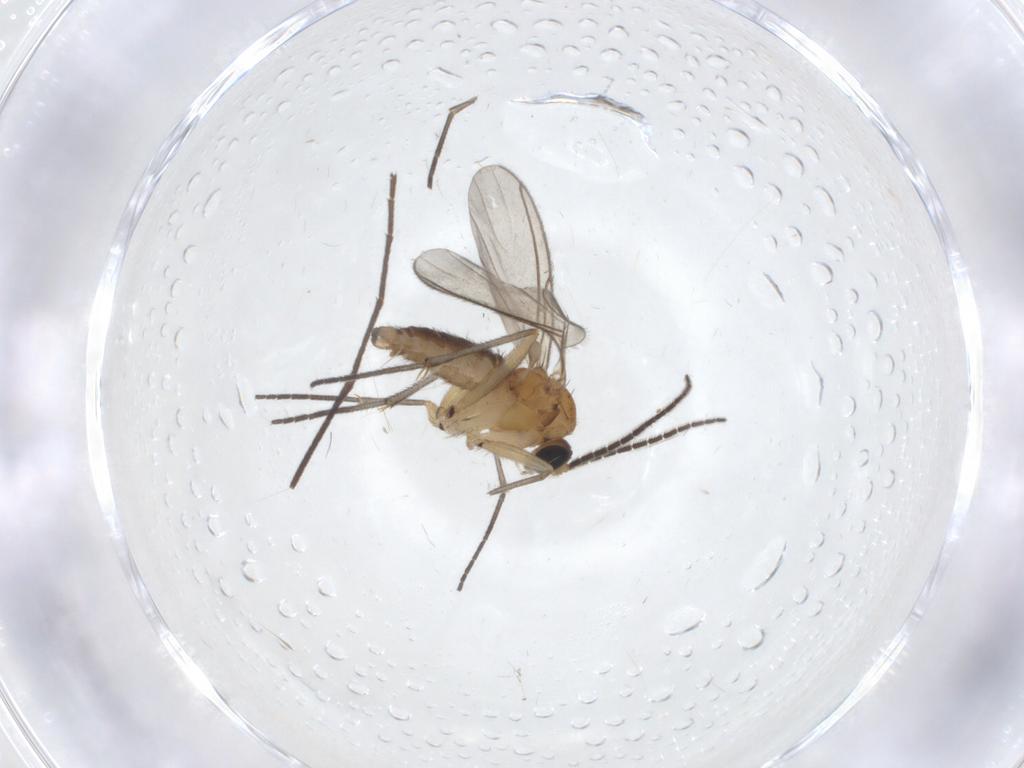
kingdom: Animalia
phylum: Arthropoda
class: Insecta
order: Diptera
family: Sciaridae
